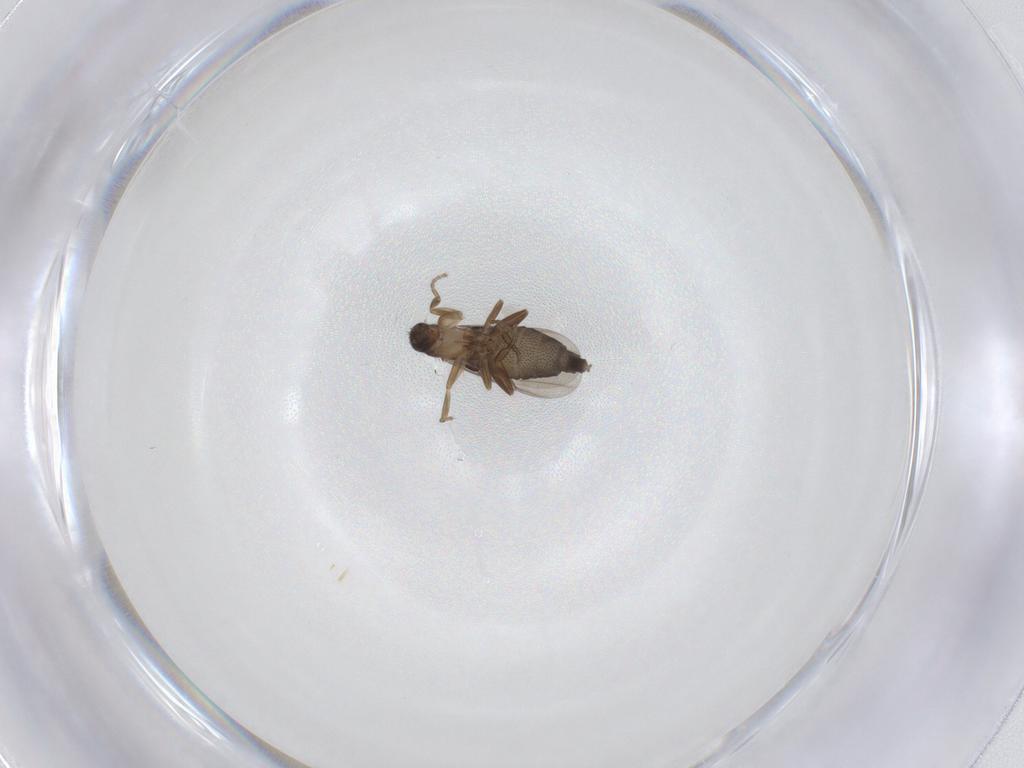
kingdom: Animalia
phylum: Arthropoda
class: Insecta
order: Diptera
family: Phoridae
